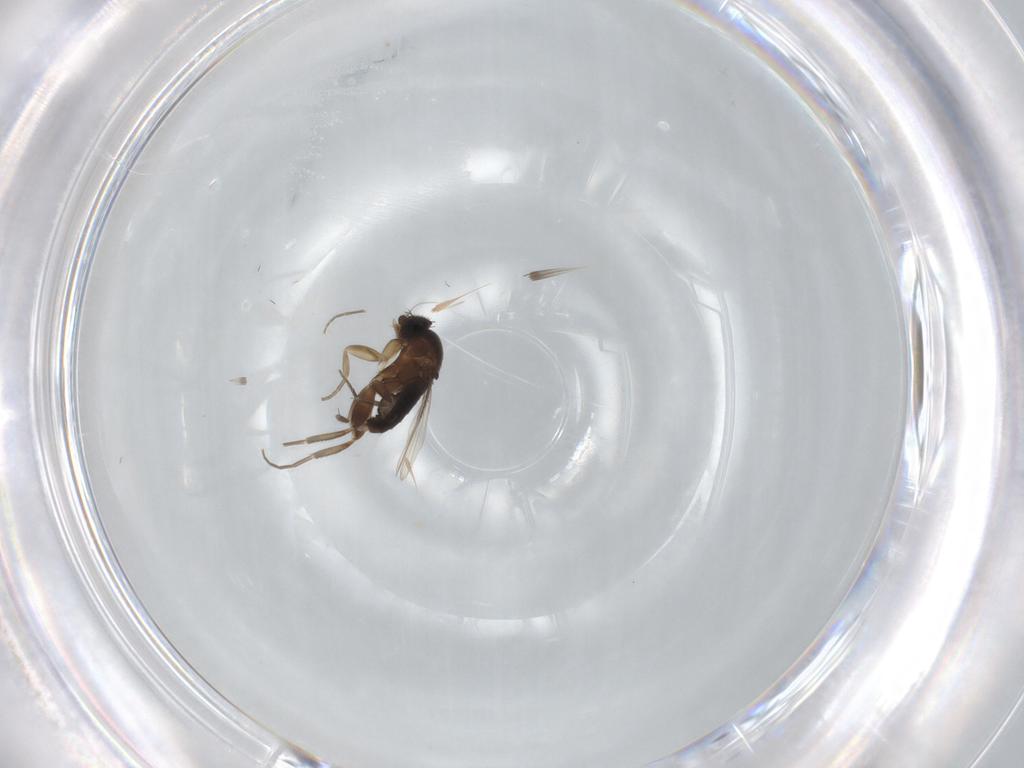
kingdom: Animalia
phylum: Arthropoda
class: Insecta
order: Diptera
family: Phoridae
